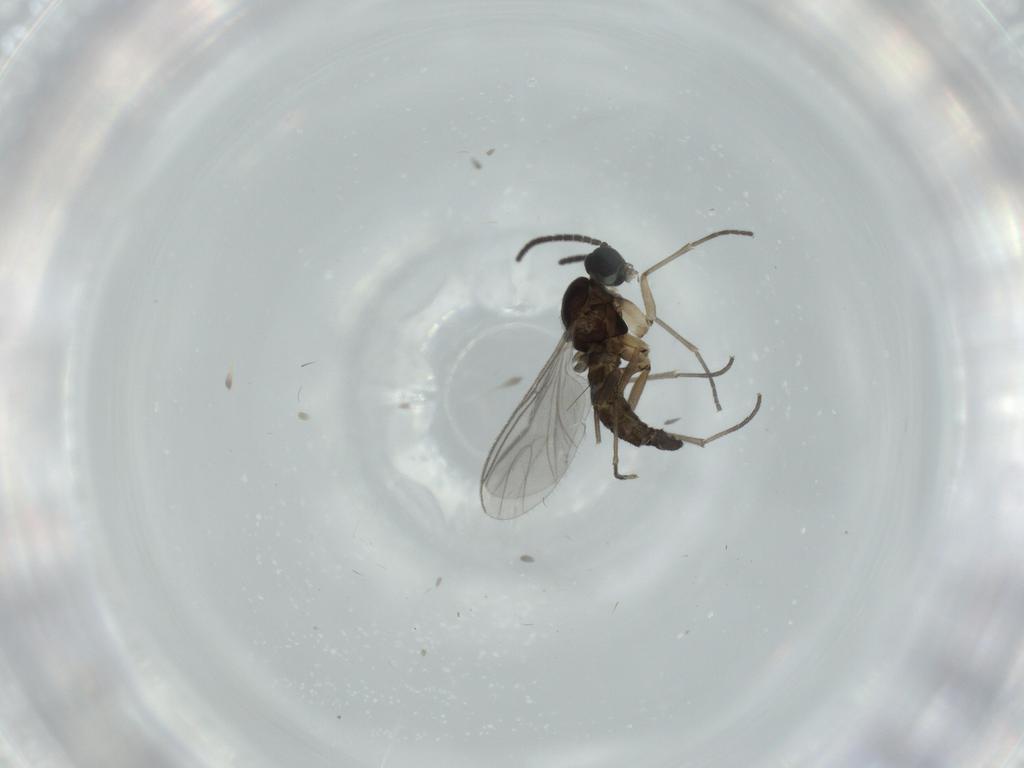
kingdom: Animalia
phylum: Arthropoda
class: Insecta
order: Diptera
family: Sciaridae
